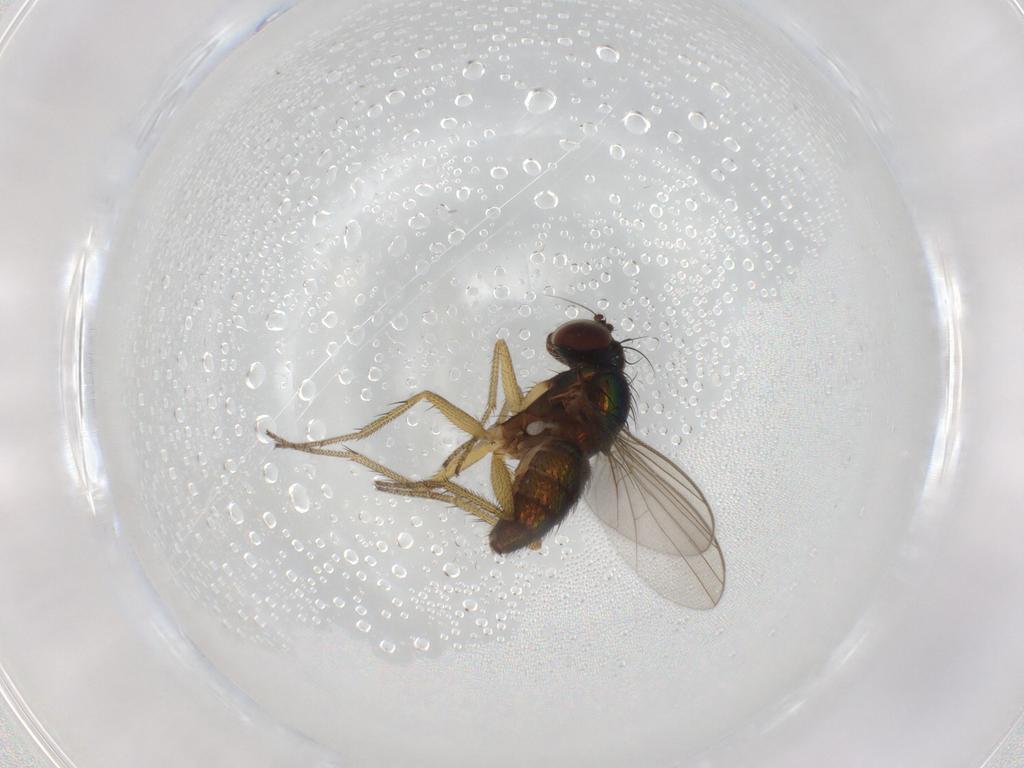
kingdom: Animalia
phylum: Arthropoda
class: Insecta
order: Diptera
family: Dolichopodidae
